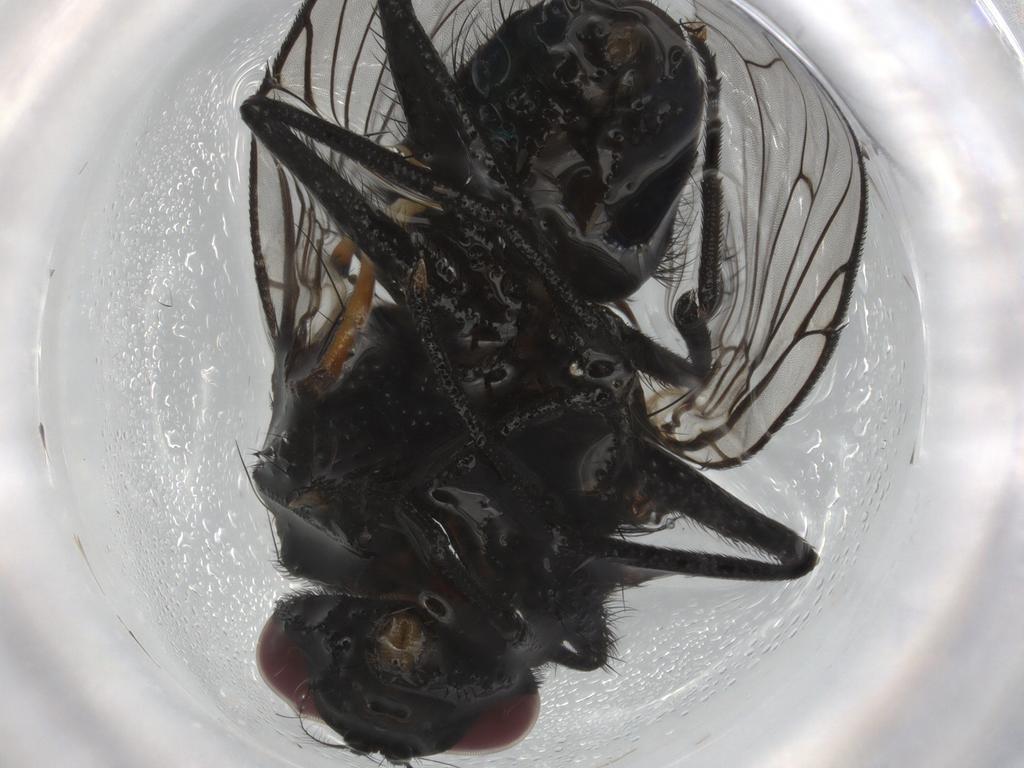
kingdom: Animalia
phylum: Arthropoda
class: Insecta
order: Diptera
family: Ceratopogonidae
